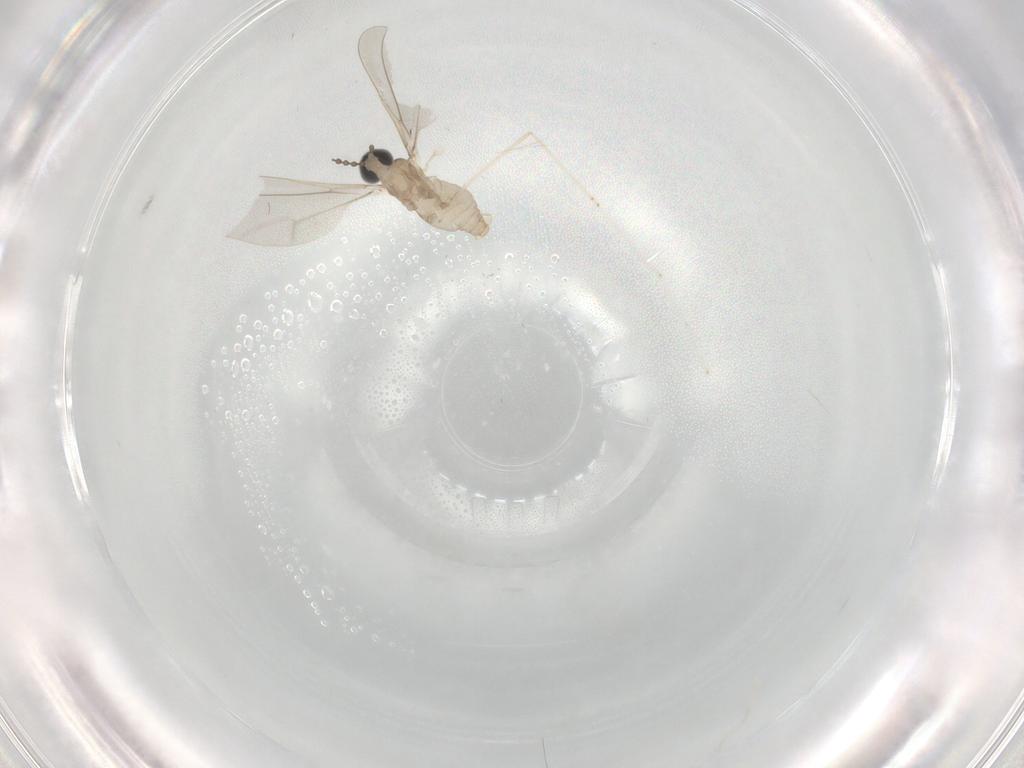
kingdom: Animalia
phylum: Arthropoda
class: Insecta
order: Diptera
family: Cecidomyiidae
